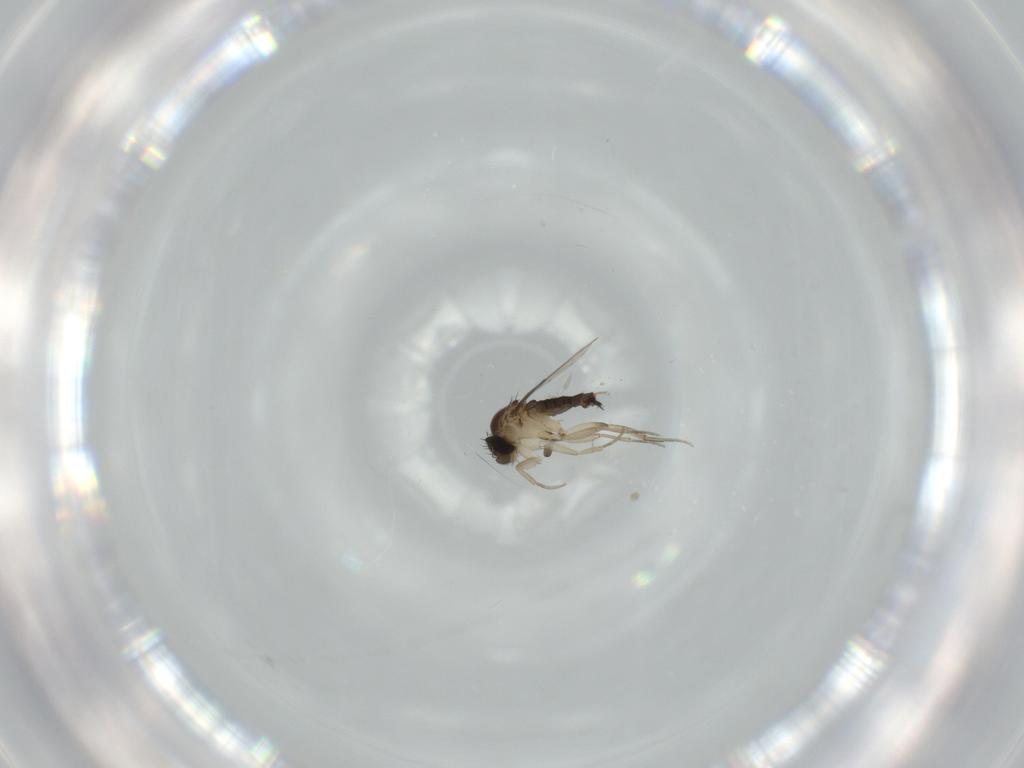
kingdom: Animalia
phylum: Arthropoda
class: Insecta
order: Diptera
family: Phoridae
